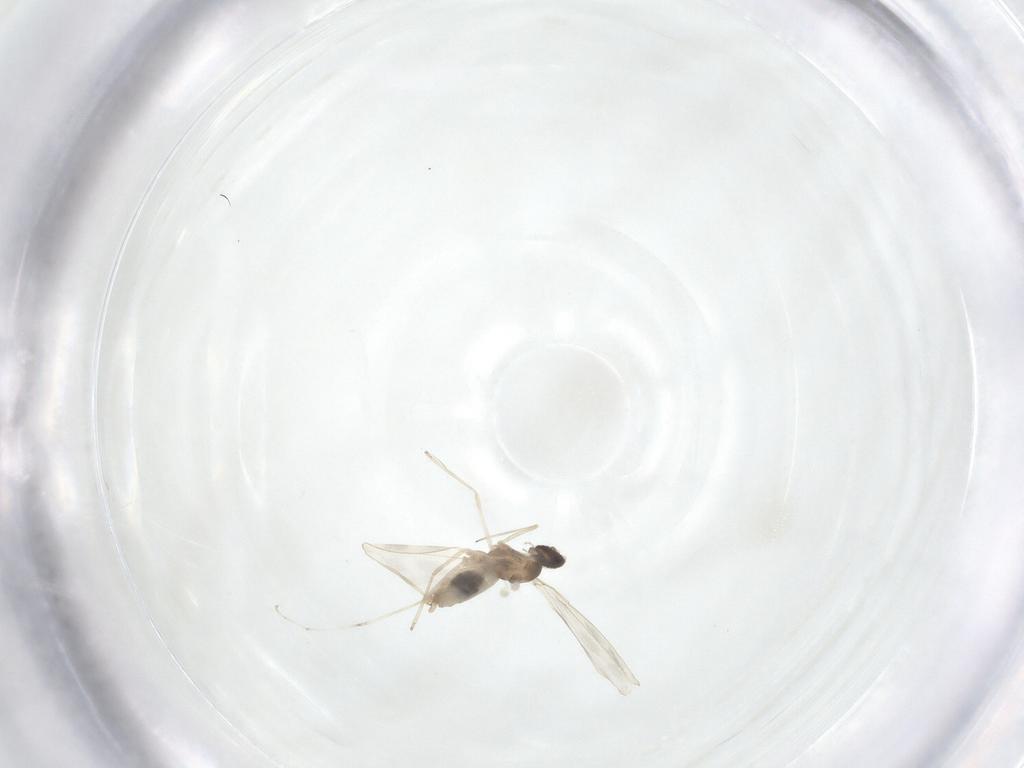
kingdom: Animalia
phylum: Arthropoda
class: Insecta
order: Diptera
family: Cecidomyiidae
